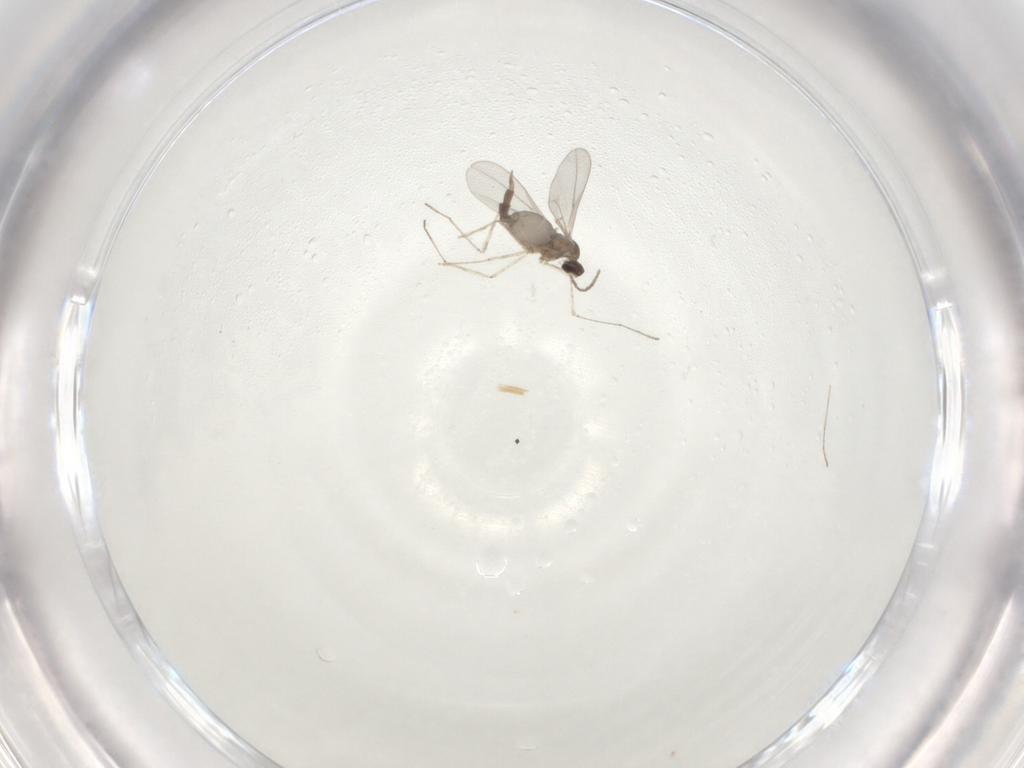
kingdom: Animalia
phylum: Arthropoda
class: Insecta
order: Diptera
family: Cecidomyiidae
